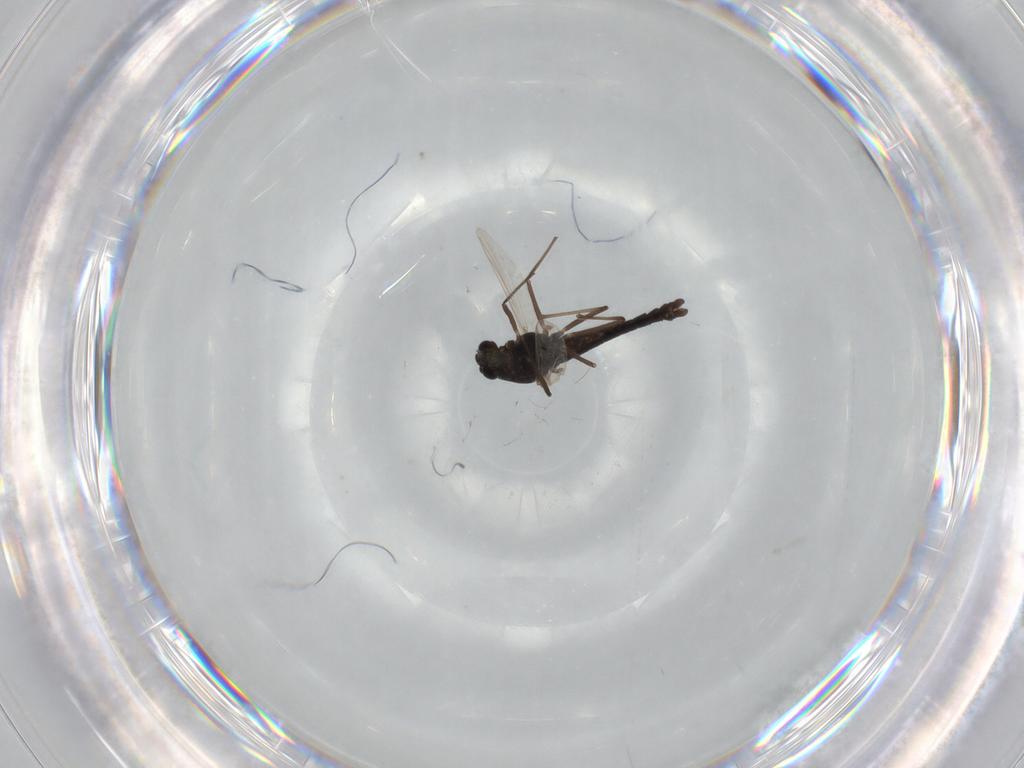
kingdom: Animalia
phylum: Arthropoda
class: Insecta
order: Diptera
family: Chironomidae
